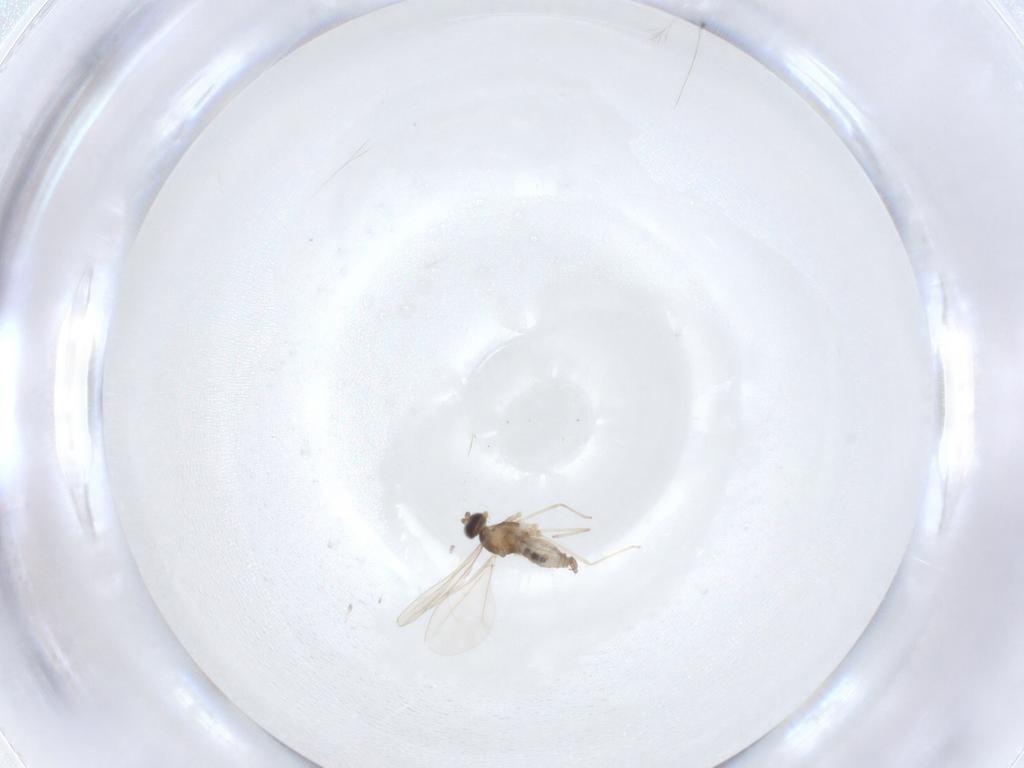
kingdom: Animalia
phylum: Arthropoda
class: Insecta
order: Diptera
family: Cecidomyiidae
